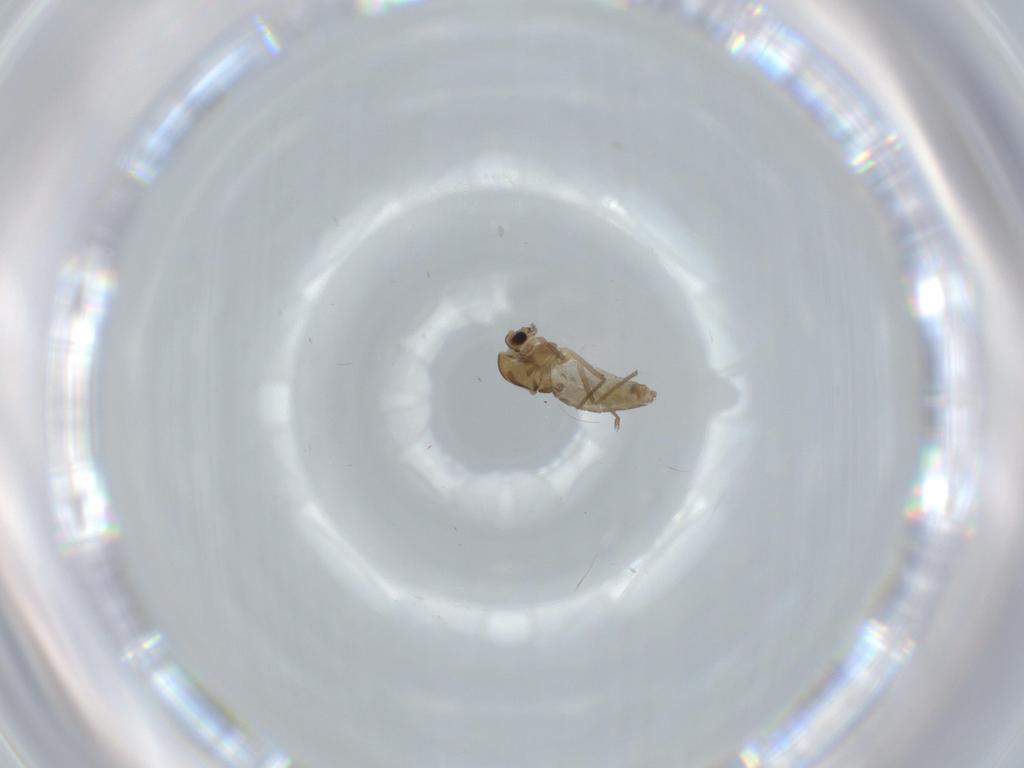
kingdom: Animalia
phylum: Arthropoda
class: Insecta
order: Diptera
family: Chironomidae
